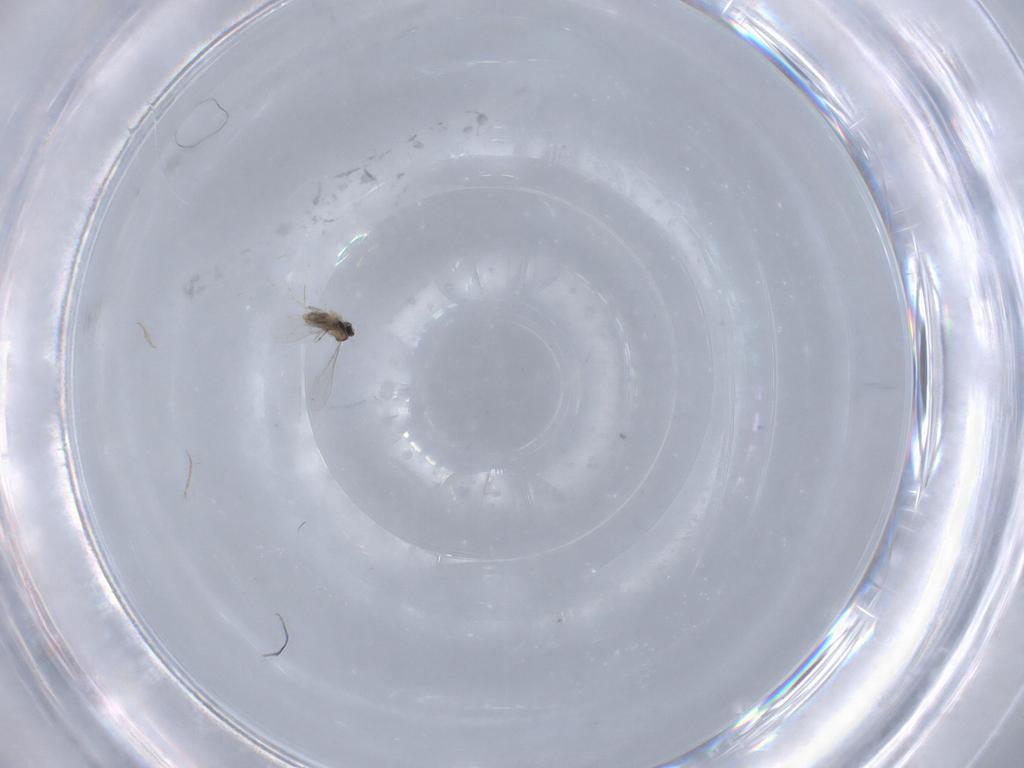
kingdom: Animalia
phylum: Arthropoda
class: Insecta
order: Diptera
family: Cecidomyiidae
